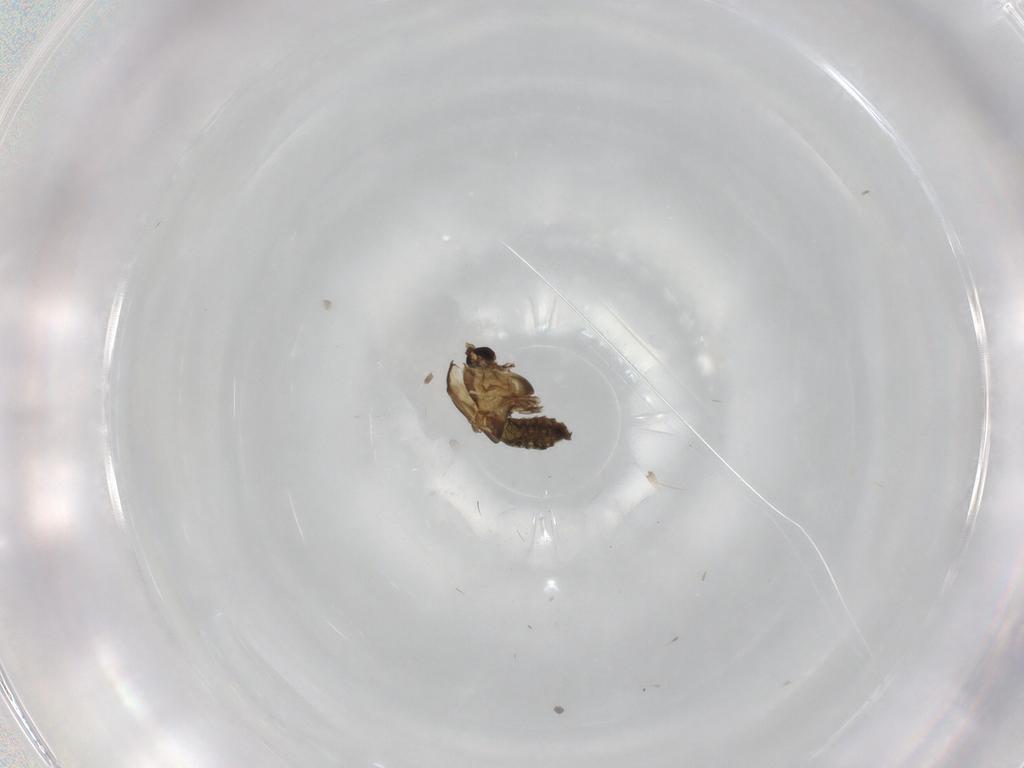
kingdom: Animalia
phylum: Arthropoda
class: Insecta
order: Diptera
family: Chironomidae
